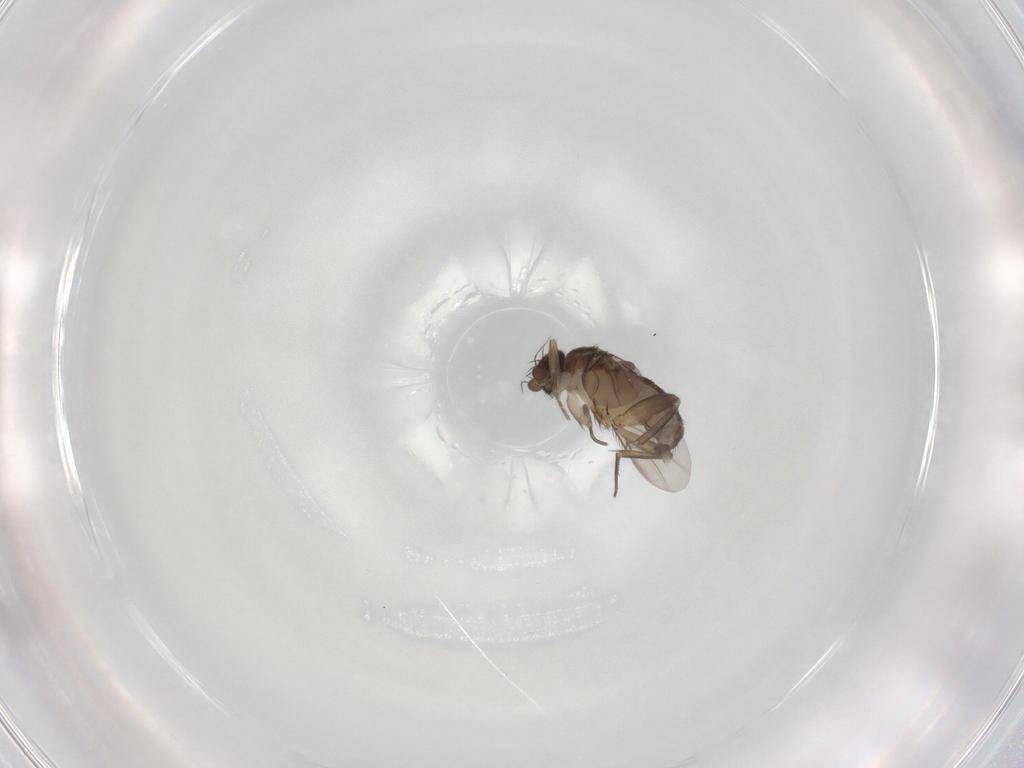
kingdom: Animalia
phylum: Arthropoda
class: Insecta
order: Diptera
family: Phoridae
